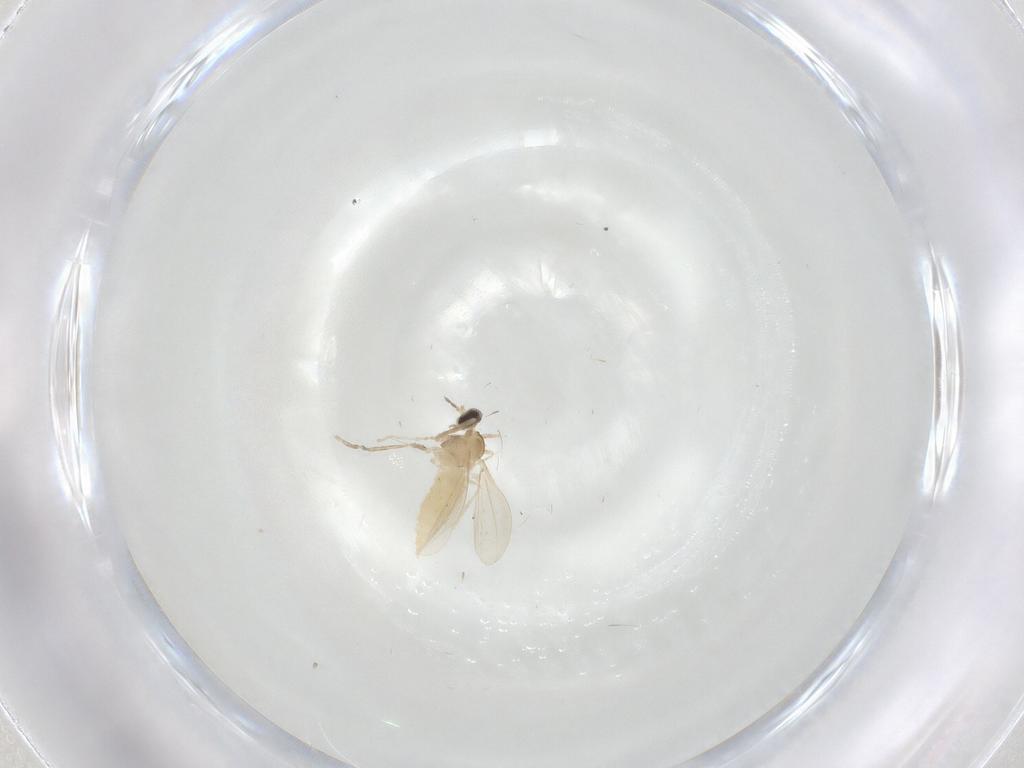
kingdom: Animalia
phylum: Arthropoda
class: Insecta
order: Diptera
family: Cecidomyiidae
